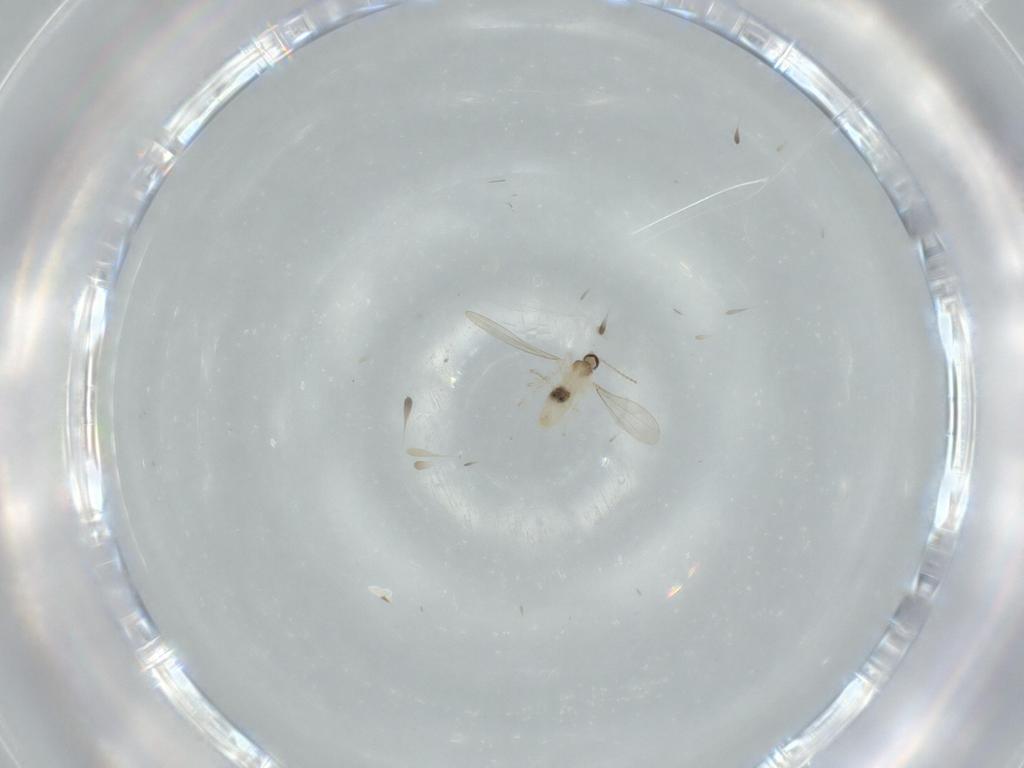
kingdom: Animalia
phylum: Arthropoda
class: Insecta
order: Diptera
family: Cecidomyiidae
